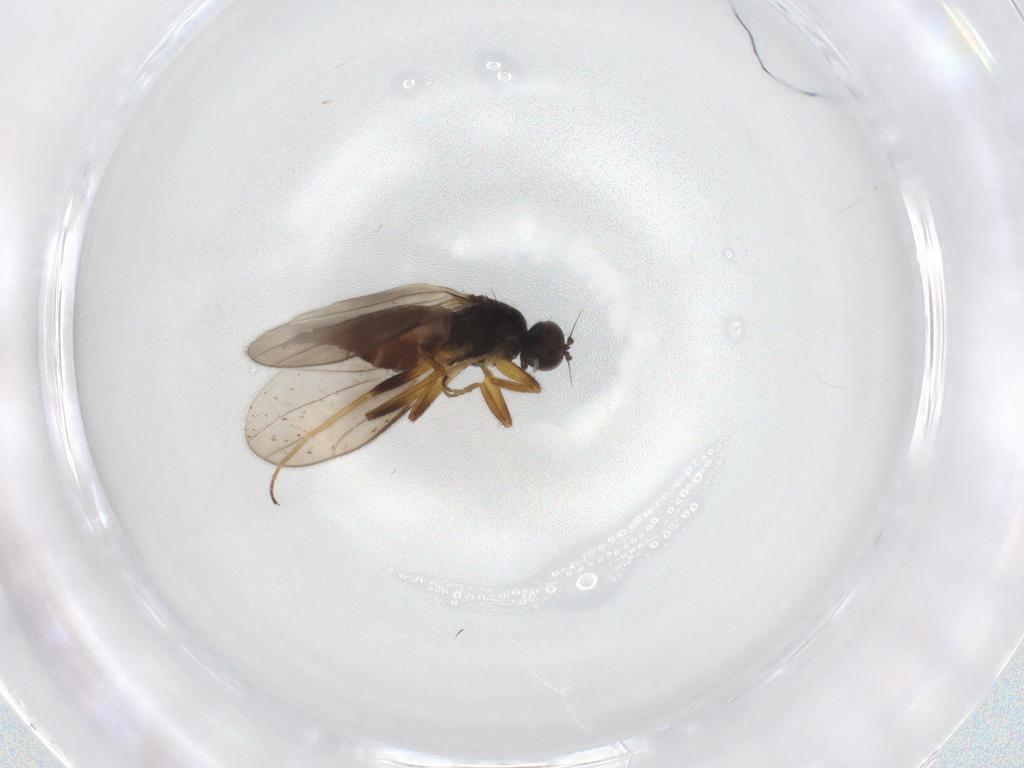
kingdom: Animalia
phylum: Arthropoda
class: Insecta
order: Diptera
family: Hybotidae
